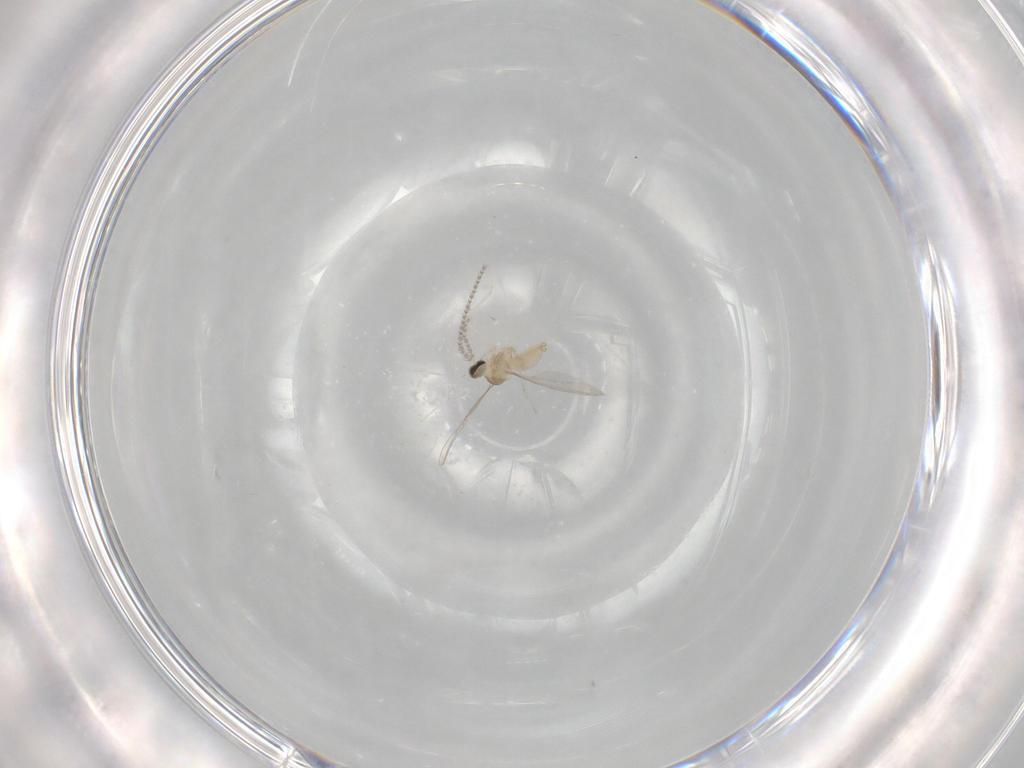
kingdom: Animalia
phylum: Arthropoda
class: Insecta
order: Diptera
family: Cecidomyiidae
